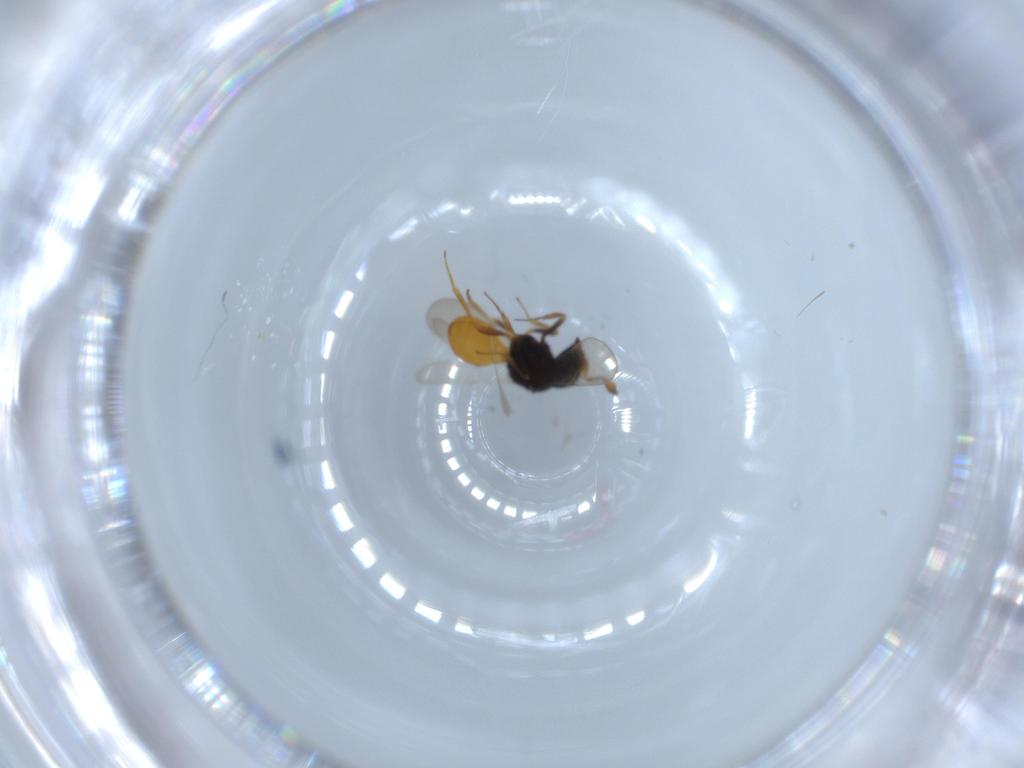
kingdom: Animalia
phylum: Arthropoda
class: Insecta
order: Hymenoptera
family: Scelionidae
